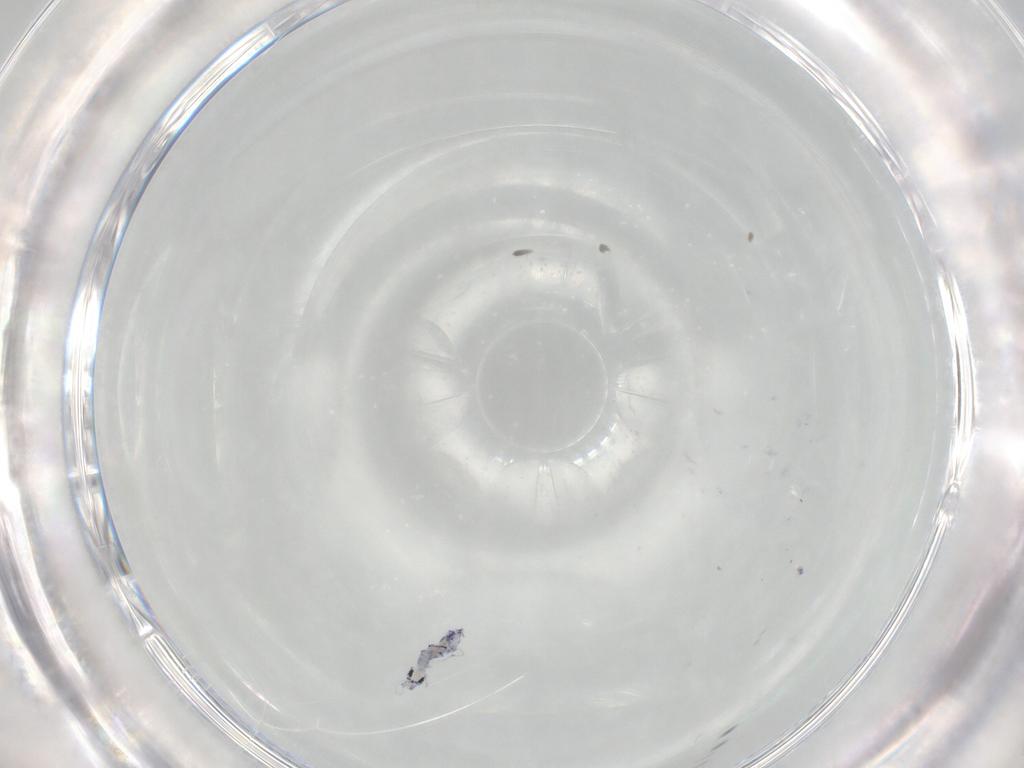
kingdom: Animalia
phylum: Arthropoda
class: Collembola
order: Entomobryomorpha
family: Entomobryidae
